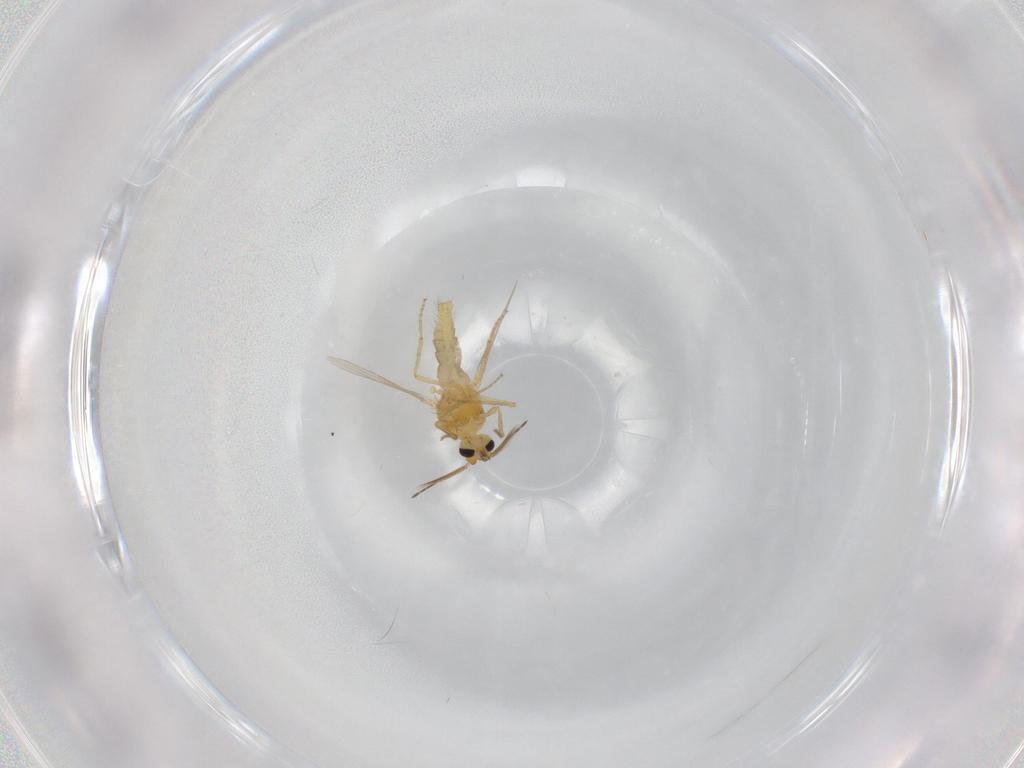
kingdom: Animalia
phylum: Arthropoda
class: Insecta
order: Diptera
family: Ceratopogonidae
